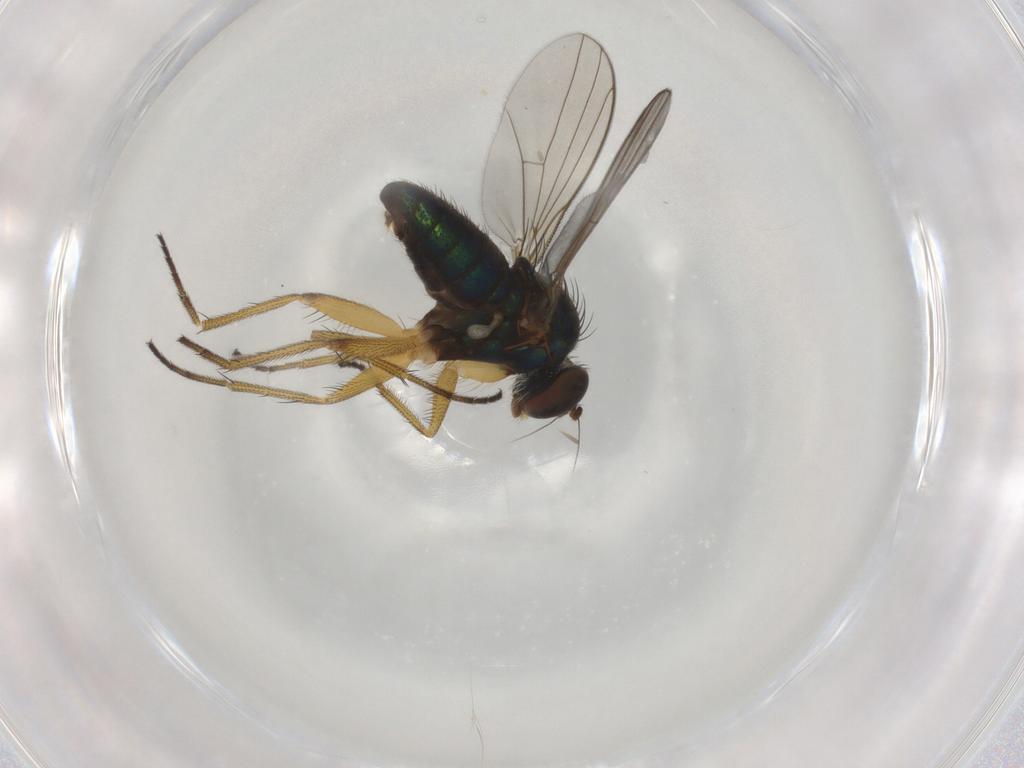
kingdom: Animalia
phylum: Arthropoda
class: Insecta
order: Diptera
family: Dolichopodidae
